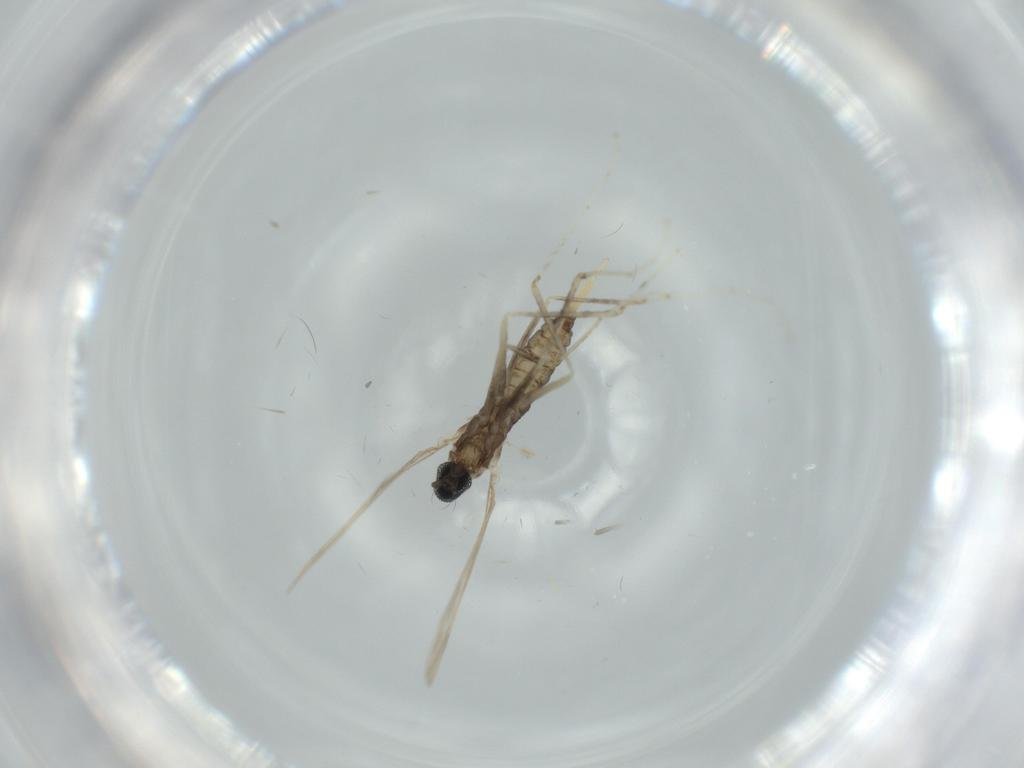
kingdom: Animalia
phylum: Arthropoda
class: Insecta
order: Diptera
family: Cecidomyiidae
